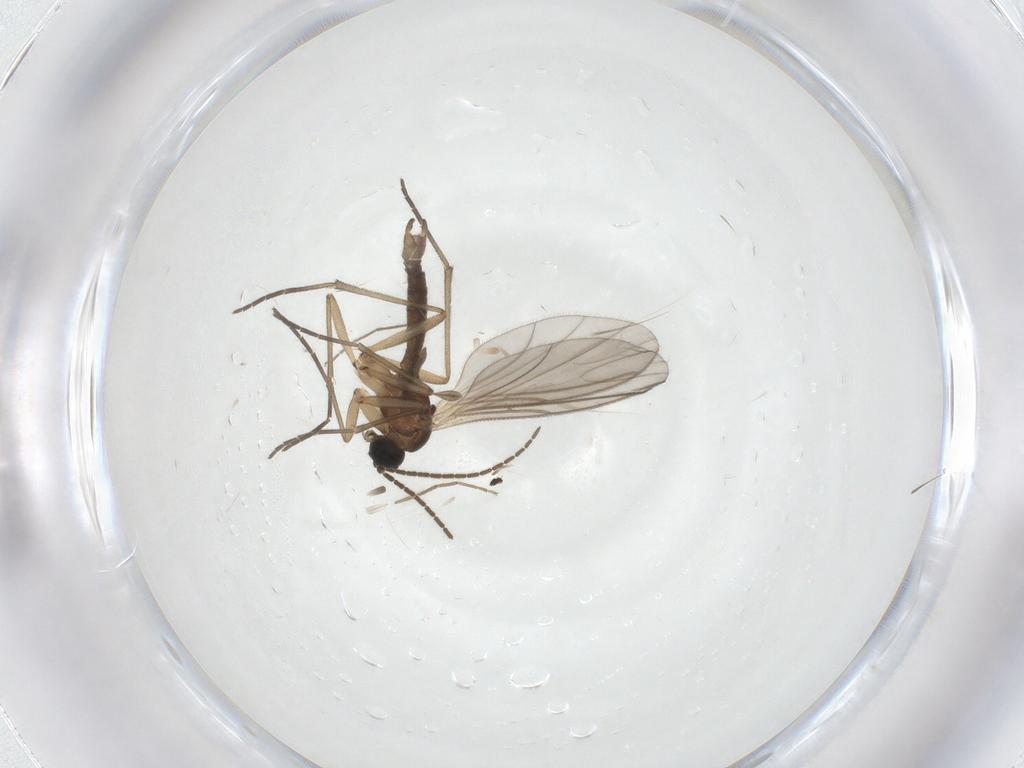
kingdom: Animalia
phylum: Arthropoda
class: Insecta
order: Diptera
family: Sciaridae
